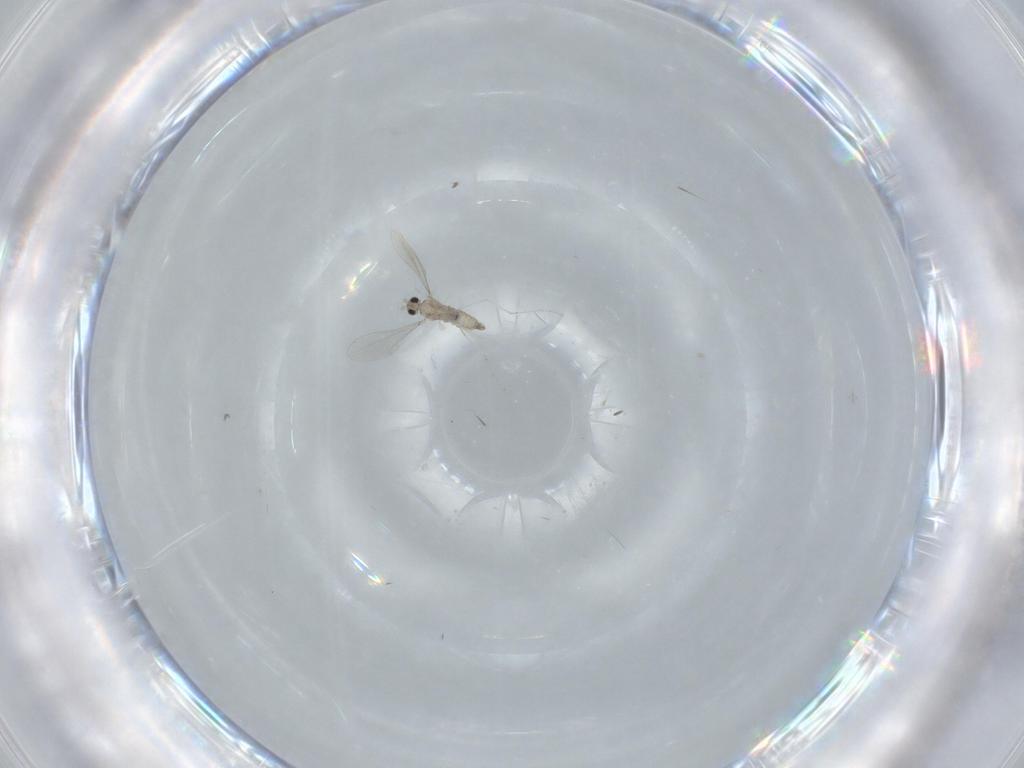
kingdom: Animalia
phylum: Arthropoda
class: Insecta
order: Diptera
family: Cecidomyiidae
